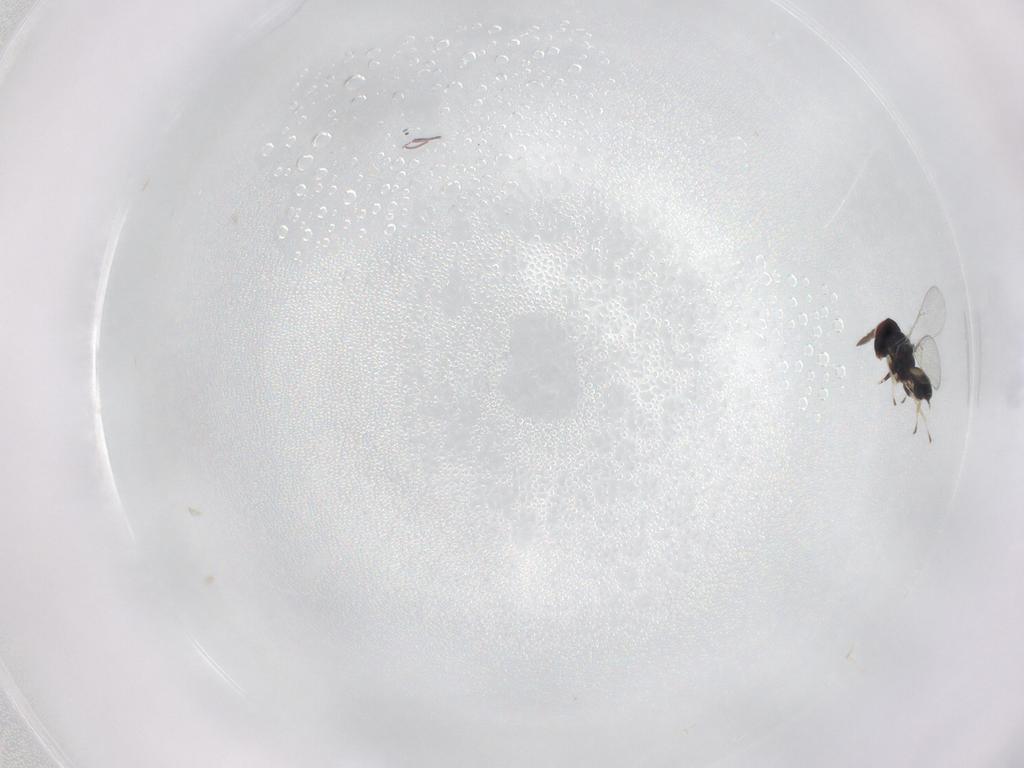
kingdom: Animalia
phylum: Arthropoda
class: Insecta
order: Hymenoptera
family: Eulophidae
